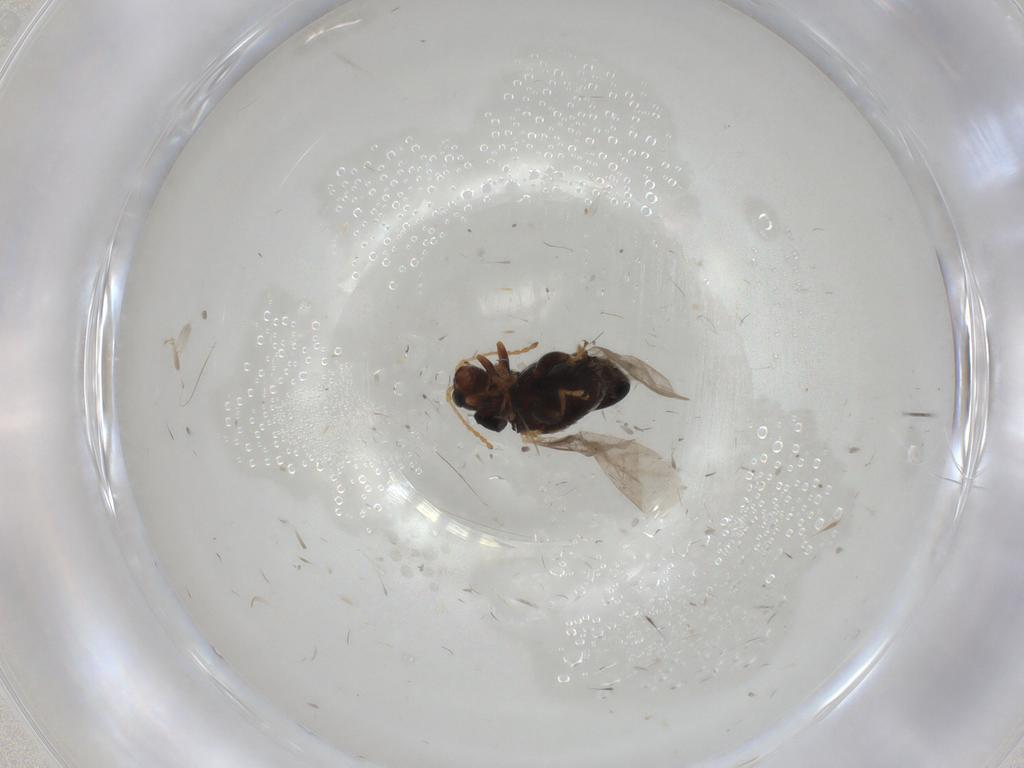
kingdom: Animalia
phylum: Arthropoda
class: Insecta
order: Coleoptera
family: Chrysomelidae
